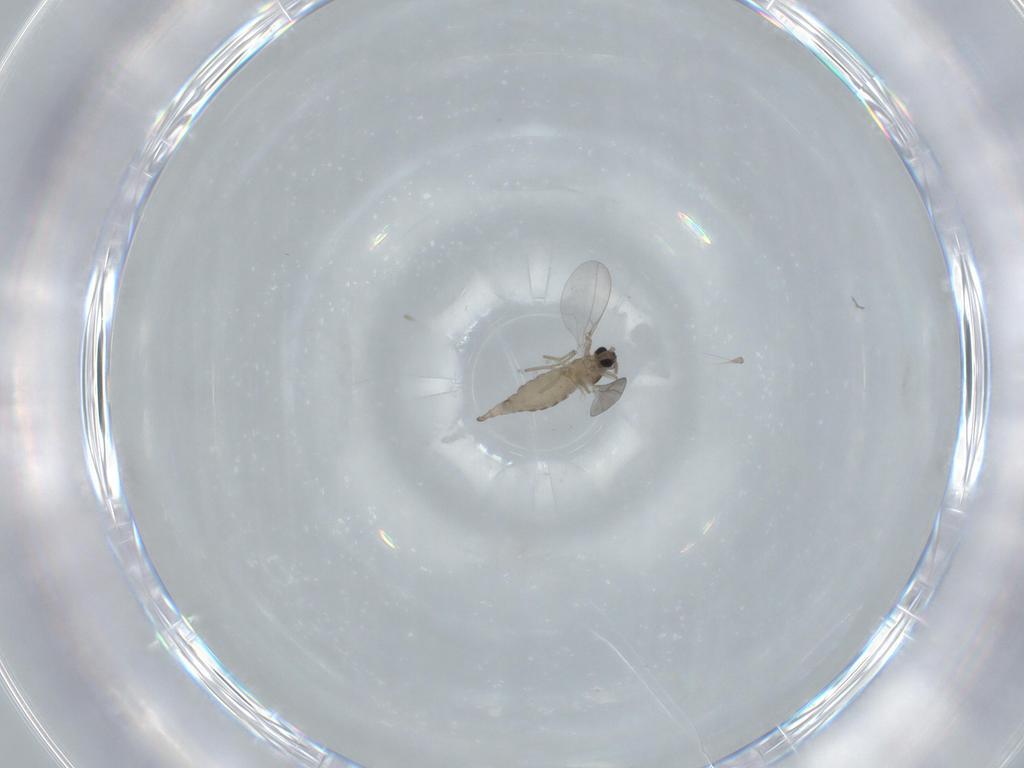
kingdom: Animalia
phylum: Arthropoda
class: Insecta
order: Diptera
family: Cecidomyiidae
